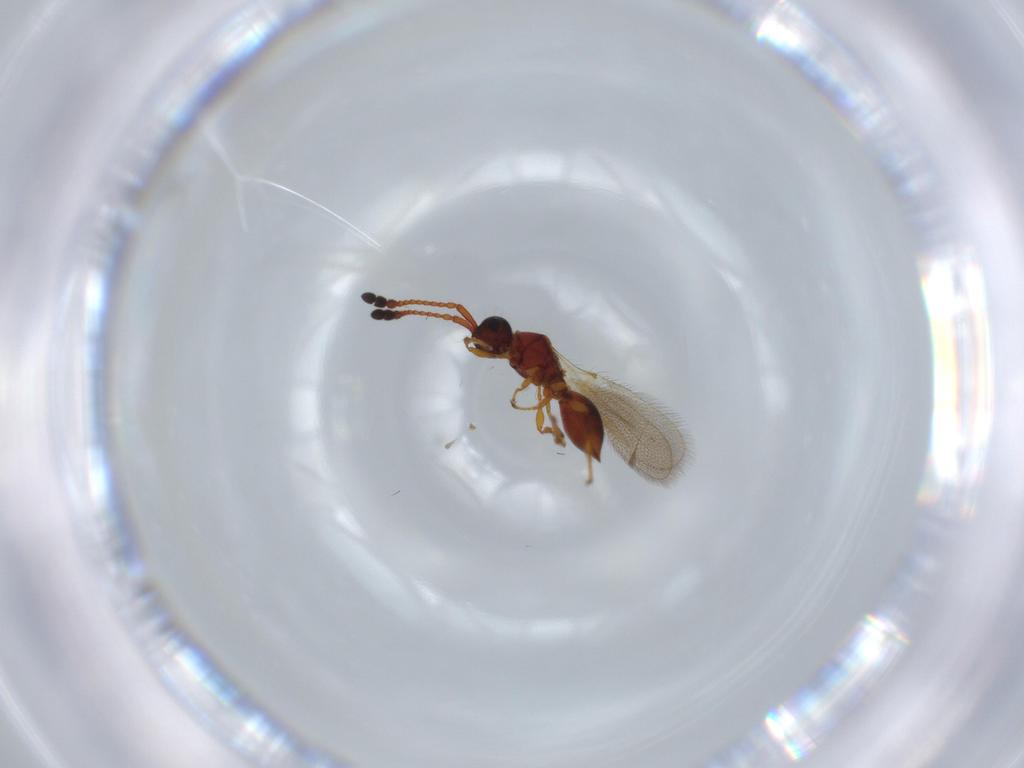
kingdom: Animalia
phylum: Arthropoda
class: Insecta
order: Hymenoptera
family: Diapriidae
